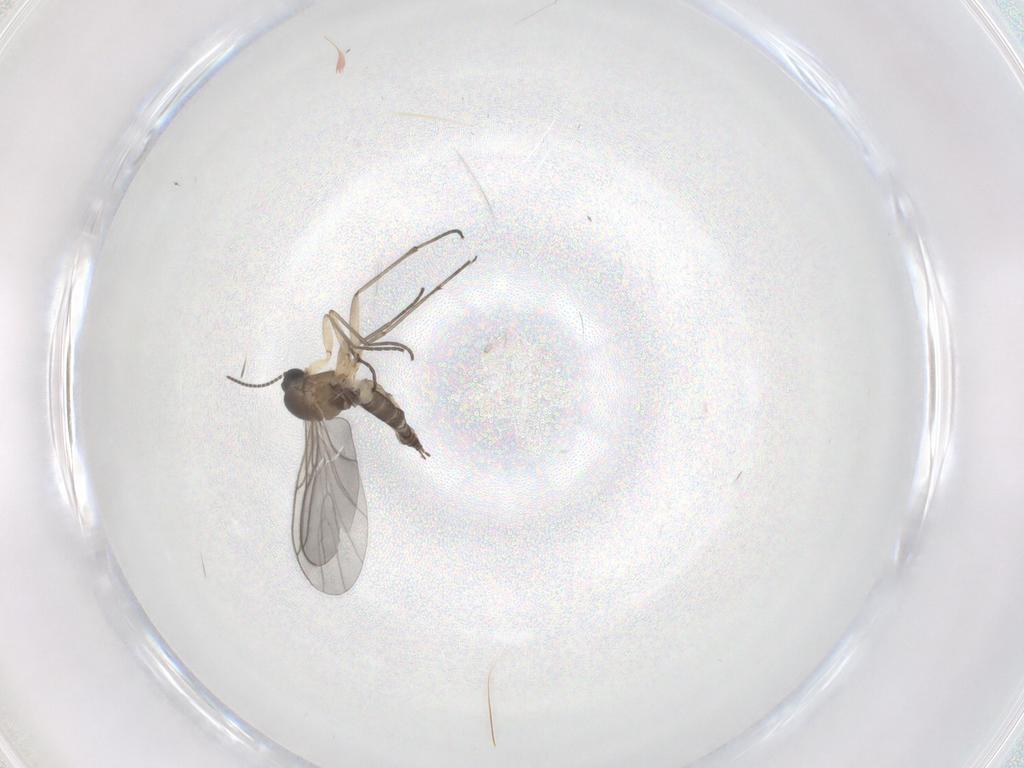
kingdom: Animalia
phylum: Arthropoda
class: Insecta
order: Diptera
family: Sciaridae
